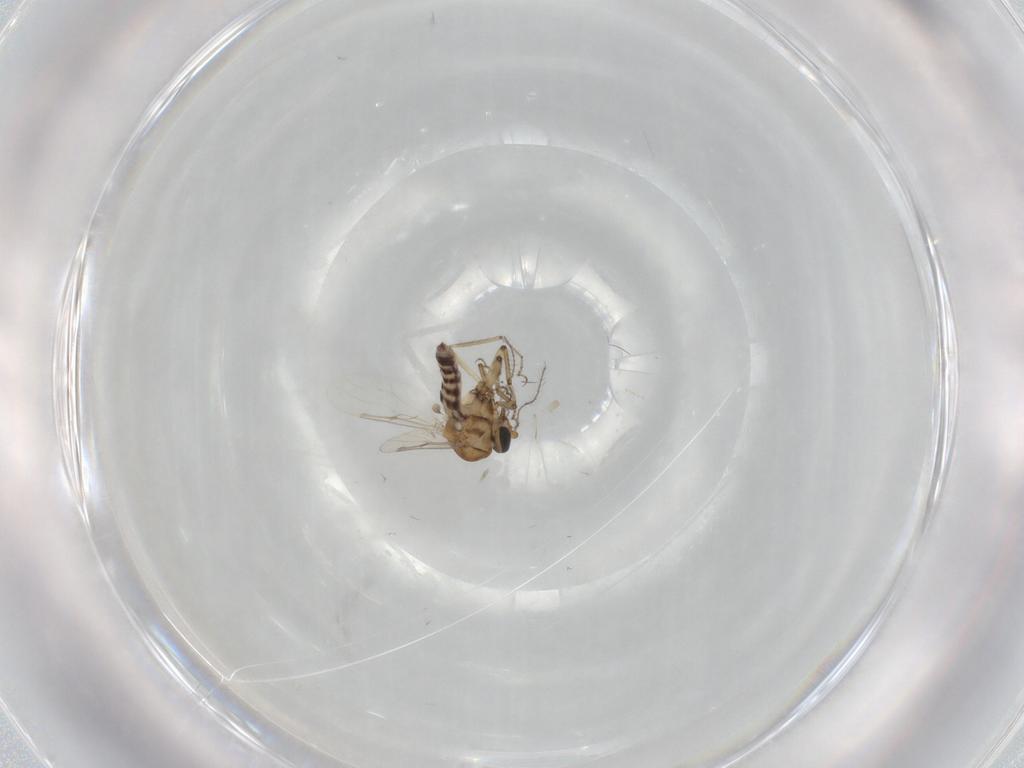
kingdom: Animalia
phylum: Arthropoda
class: Insecta
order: Diptera
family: Ceratopogonidae
